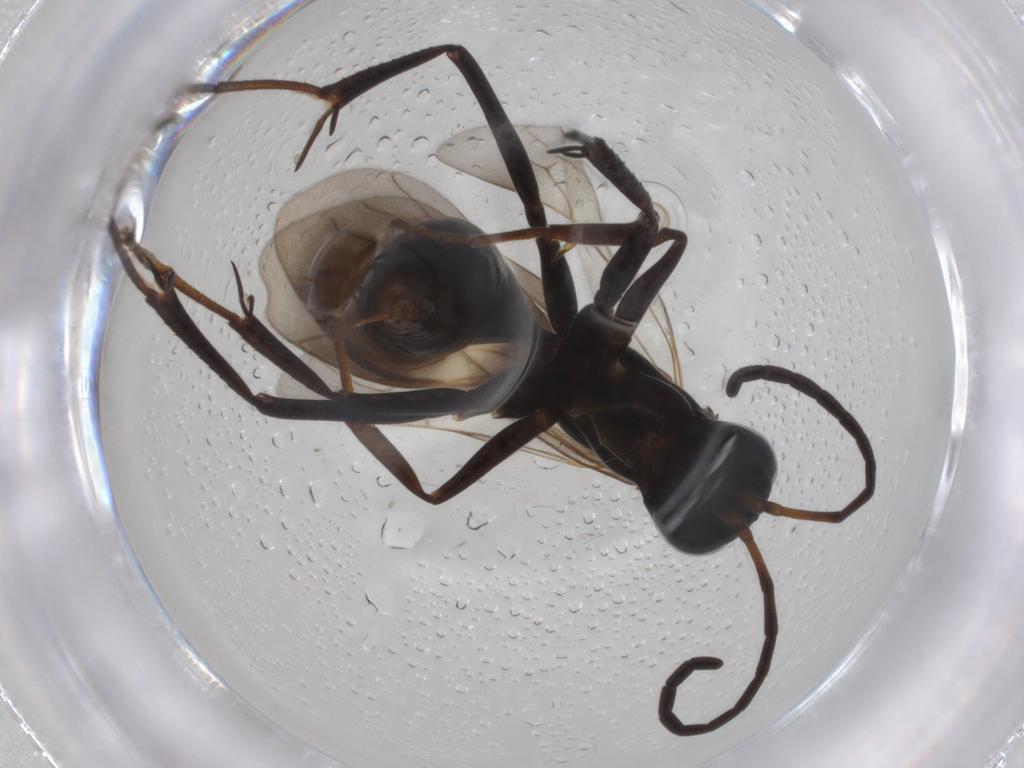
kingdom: Animalia
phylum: Arthropoda
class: Insecta
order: Hymenoptera
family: Pompilidae
